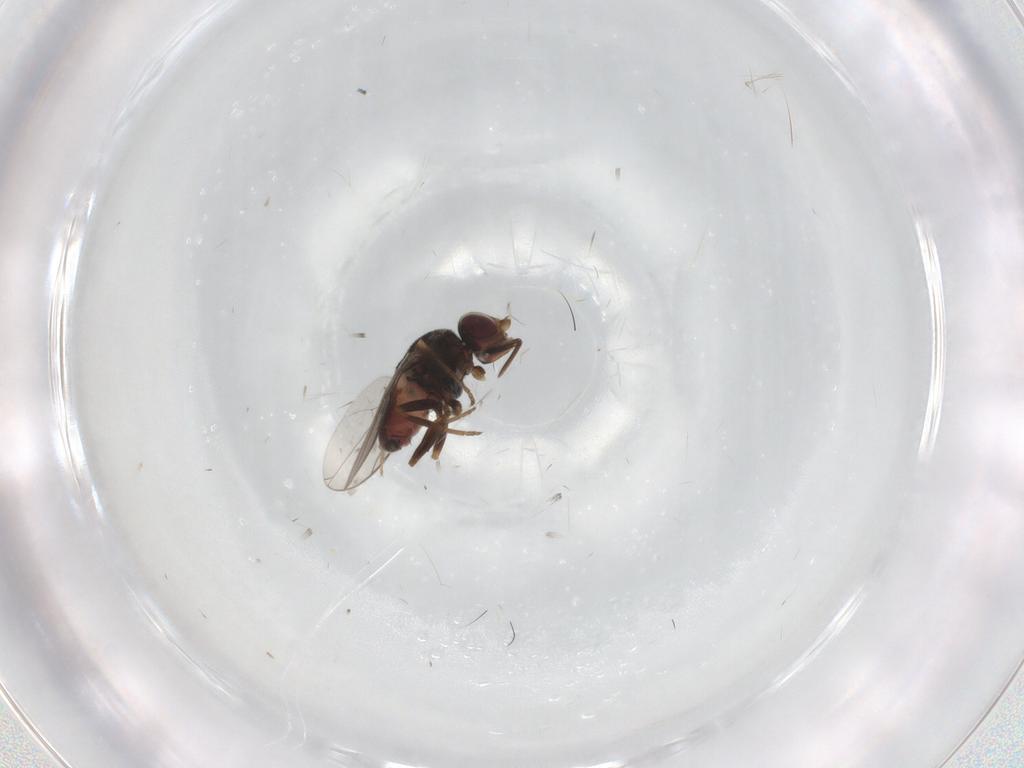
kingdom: Animalia
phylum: Arthropoda
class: Insecta
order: Diptera
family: Chloropidae
